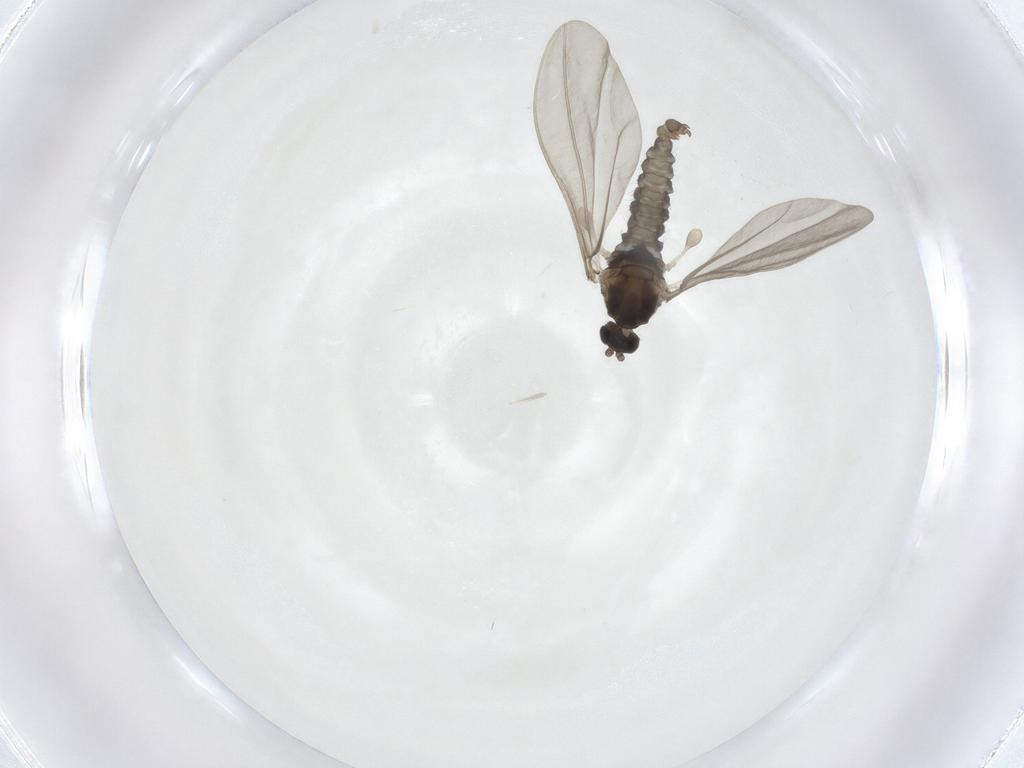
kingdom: Animalia
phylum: Arthropoda
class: Insecta
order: Diptera
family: Cecidomyiidae
